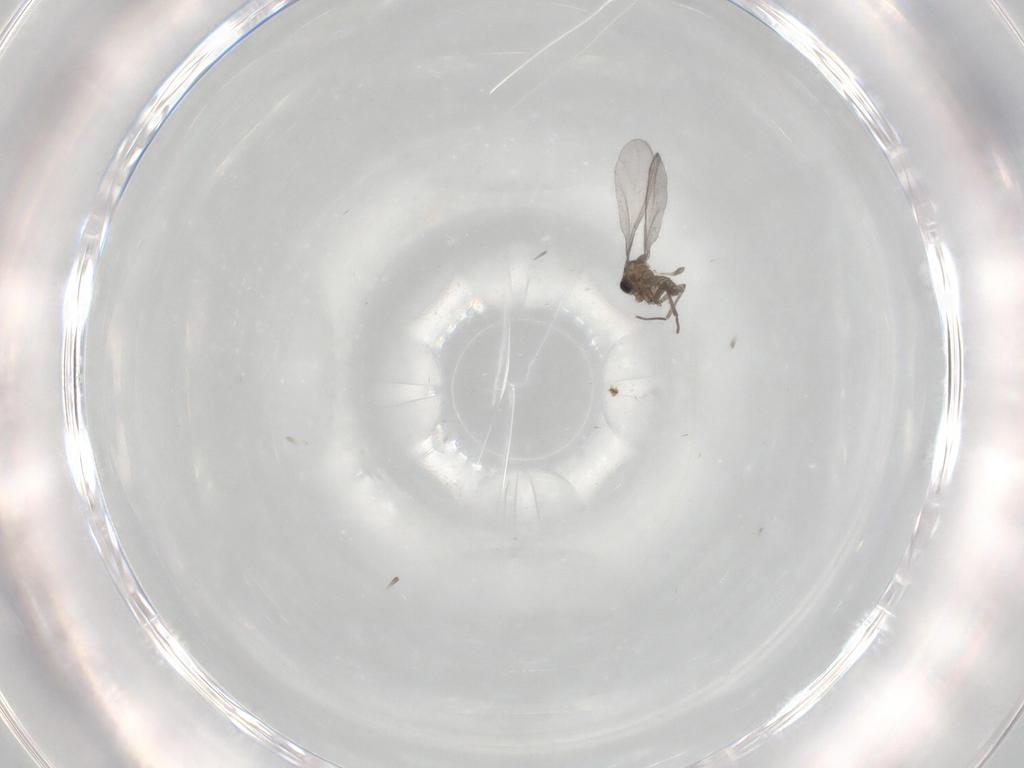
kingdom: Animalia
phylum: Arthropoda
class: Insecta
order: Diptera
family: Sciaridae
